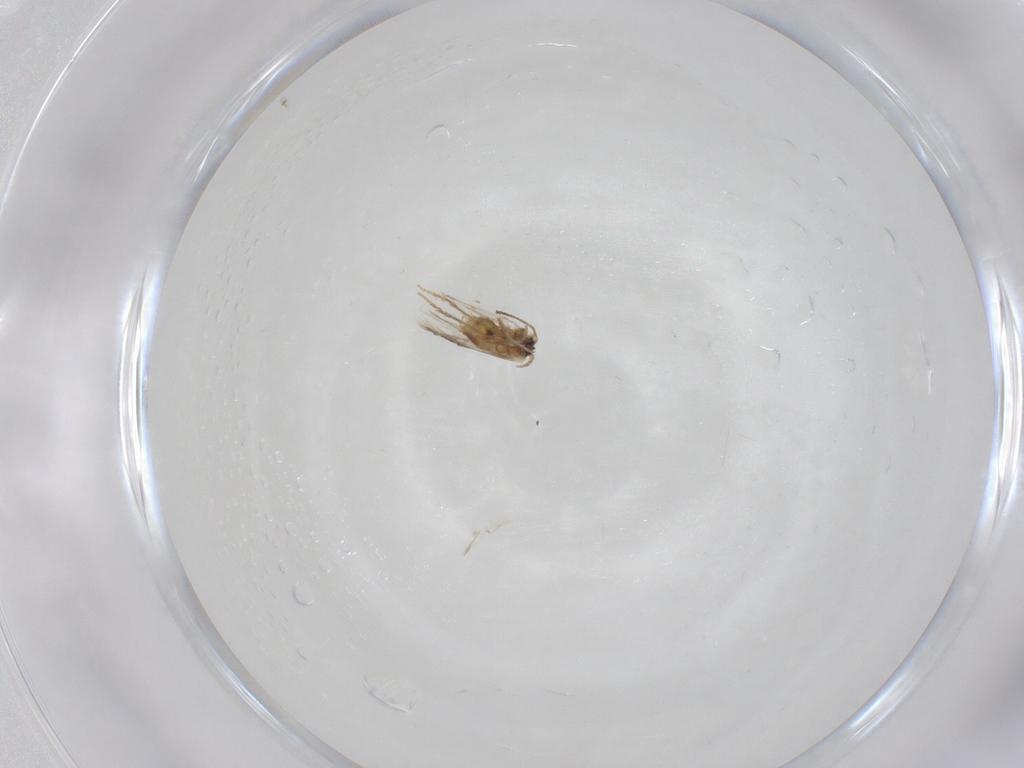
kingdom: Animalia
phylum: Arthropoda
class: Insecta
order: Lepidoptera
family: Nepticulidae
